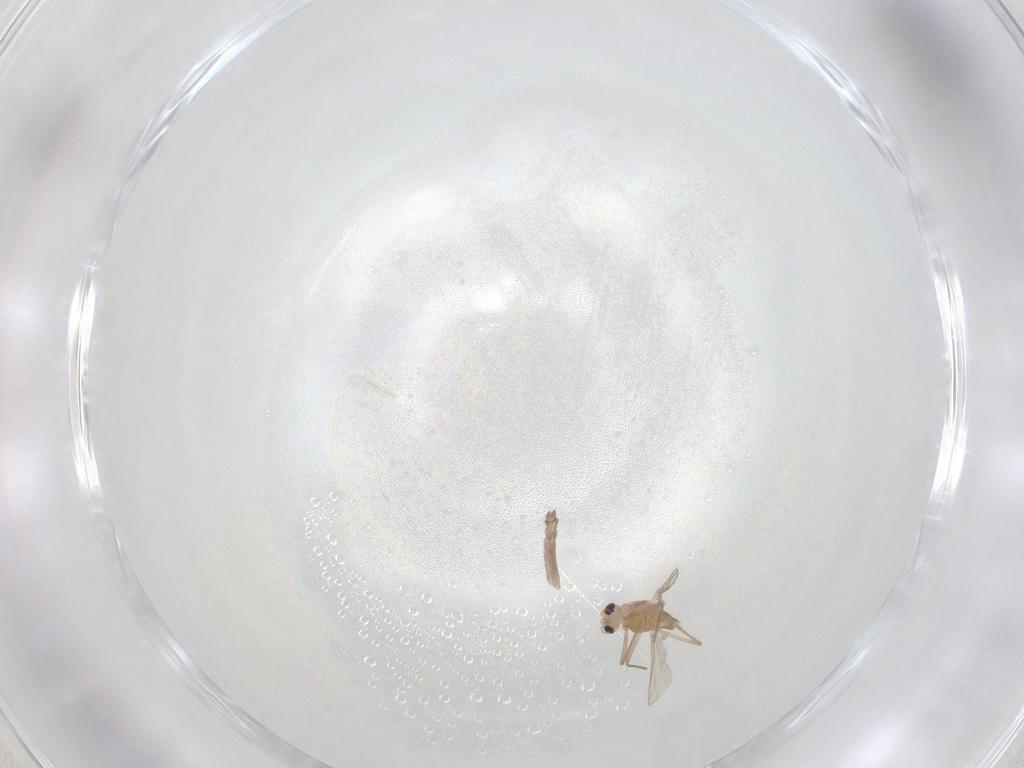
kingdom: Animalia
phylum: Arthropoda
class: Insecta
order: Diptera
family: Chironomidae
